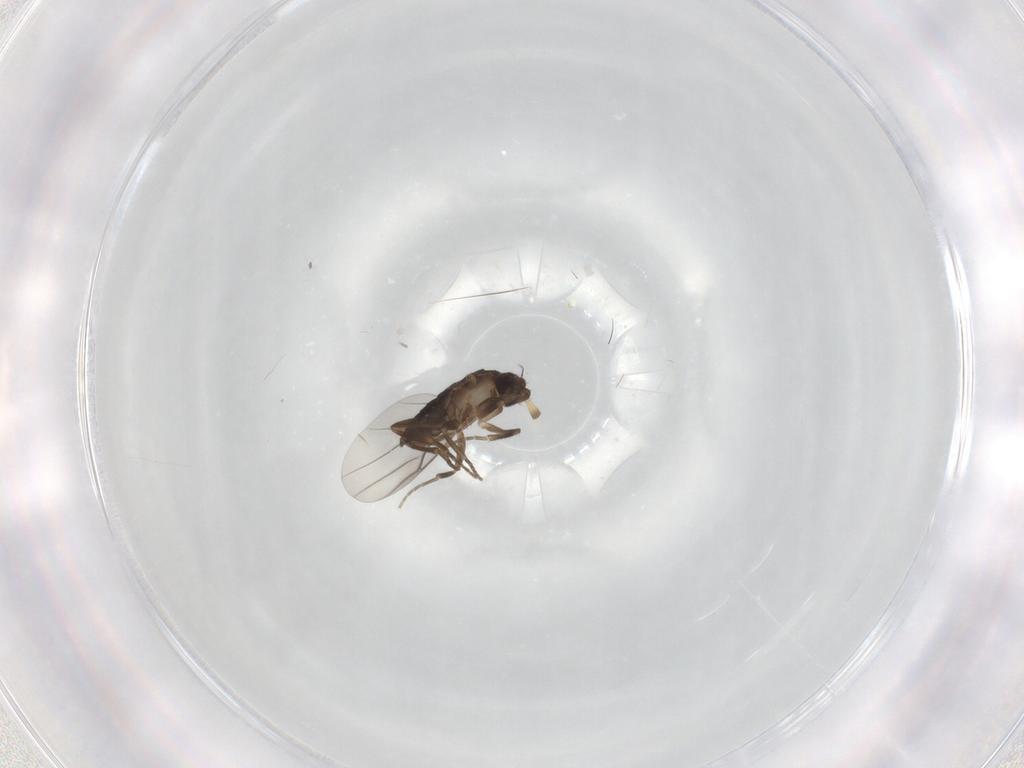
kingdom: Animalia
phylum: Arthropoda
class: Insecta
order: Diptera
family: Phoridae
